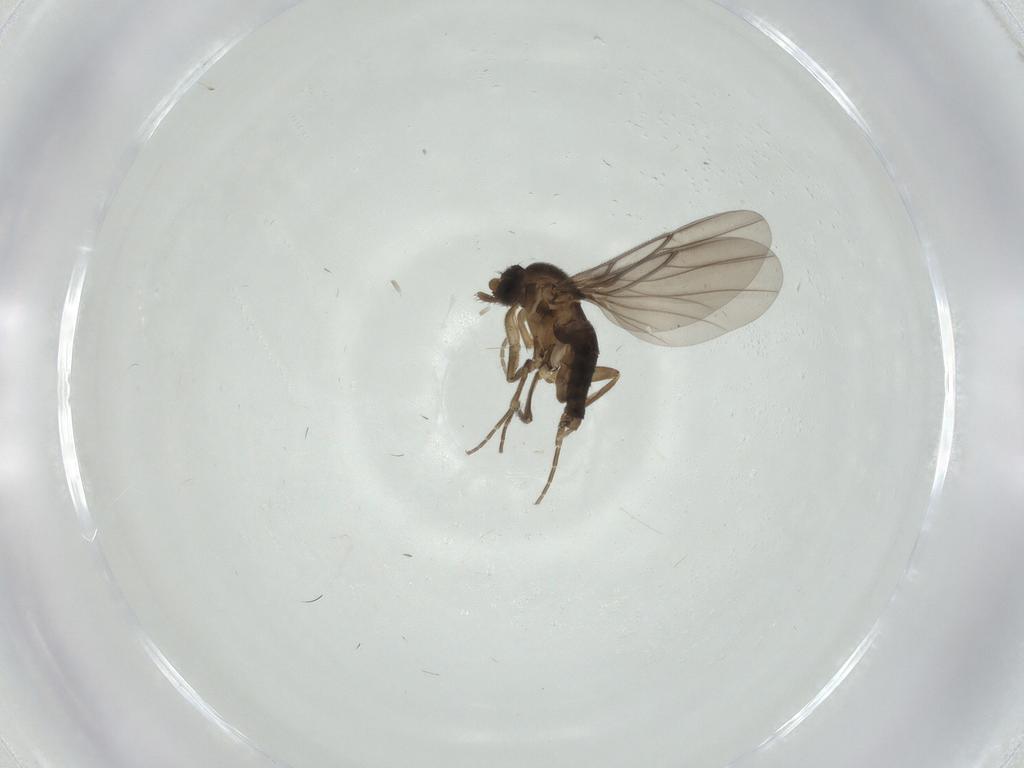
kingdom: Animalia
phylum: Arthropoda
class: Insecta
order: Diptera
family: Phoridae
